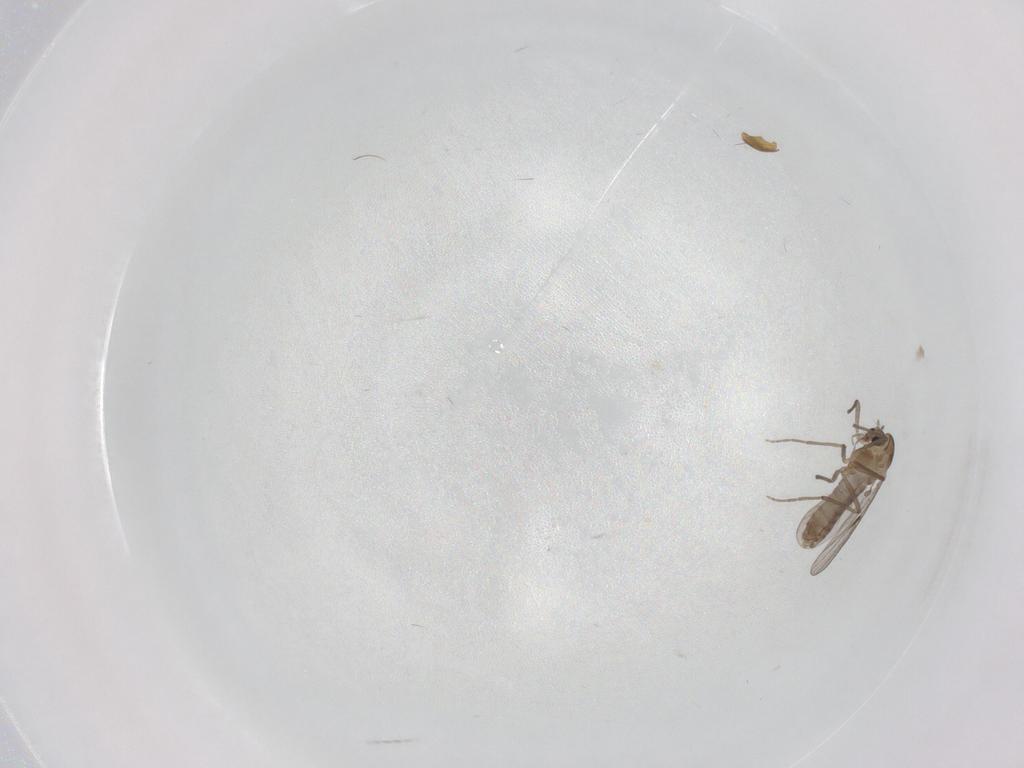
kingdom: Animalia
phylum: Arthropoda
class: Insecta
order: Diptera
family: Chironomidae
